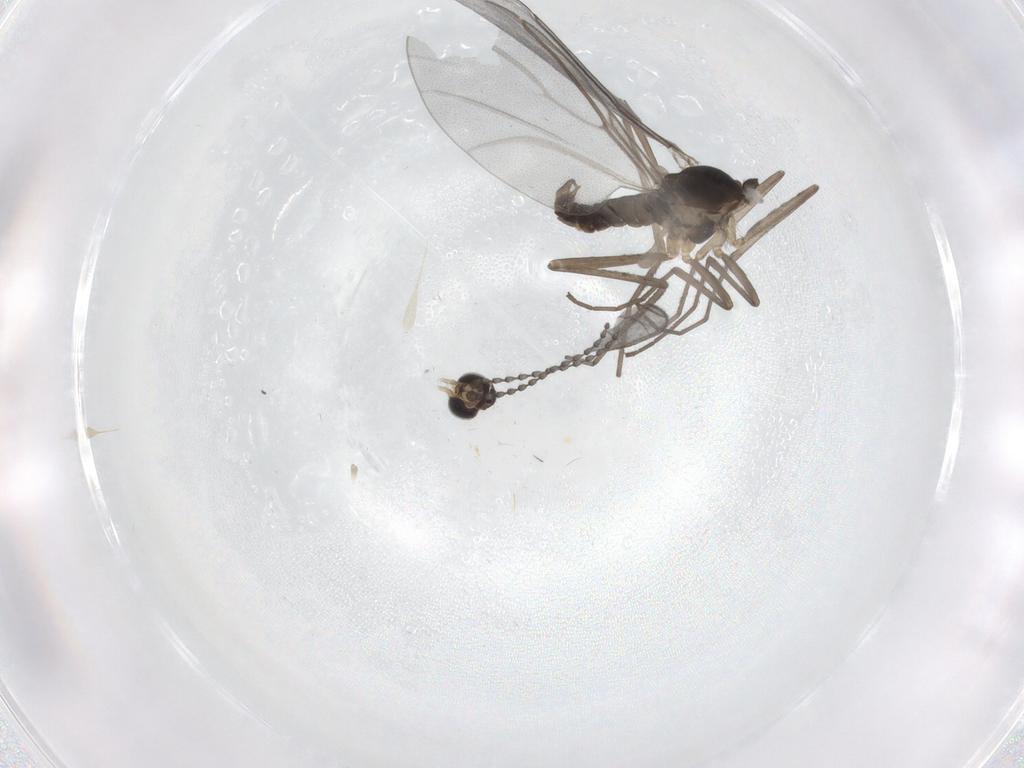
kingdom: Animalia
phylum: Arthropoda
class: Insecta
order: Diptera
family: Cecidomyiidae
